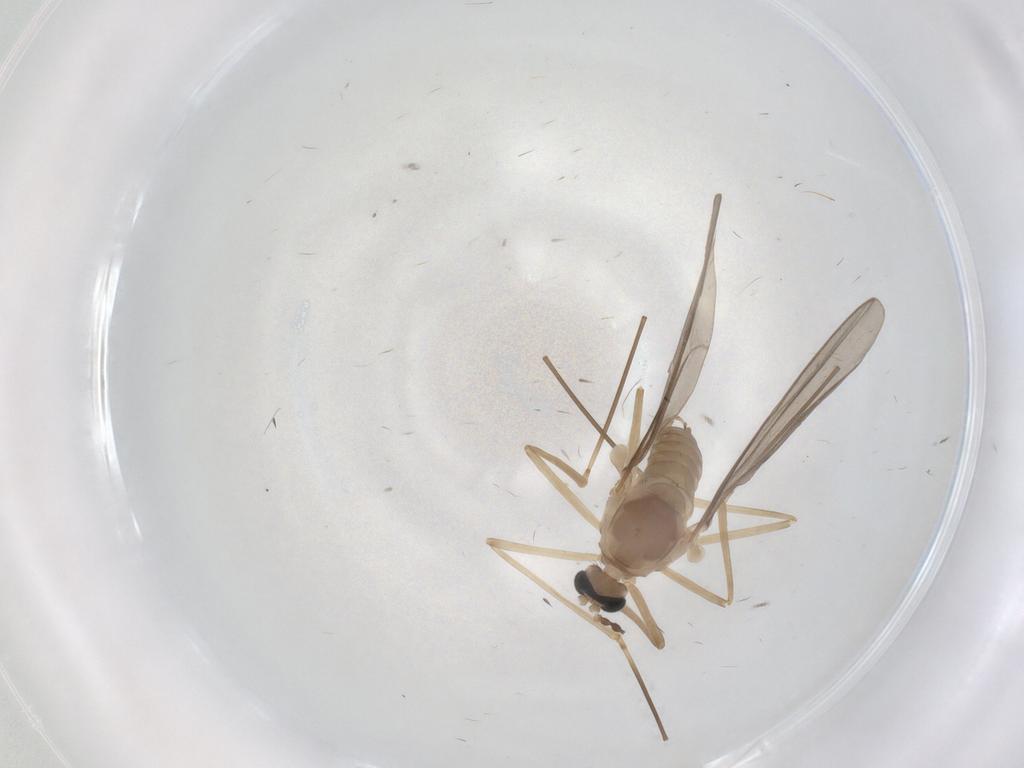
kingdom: Animalia
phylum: Arthropoda
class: Insecta
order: Diptera
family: Cecidomyiidae
